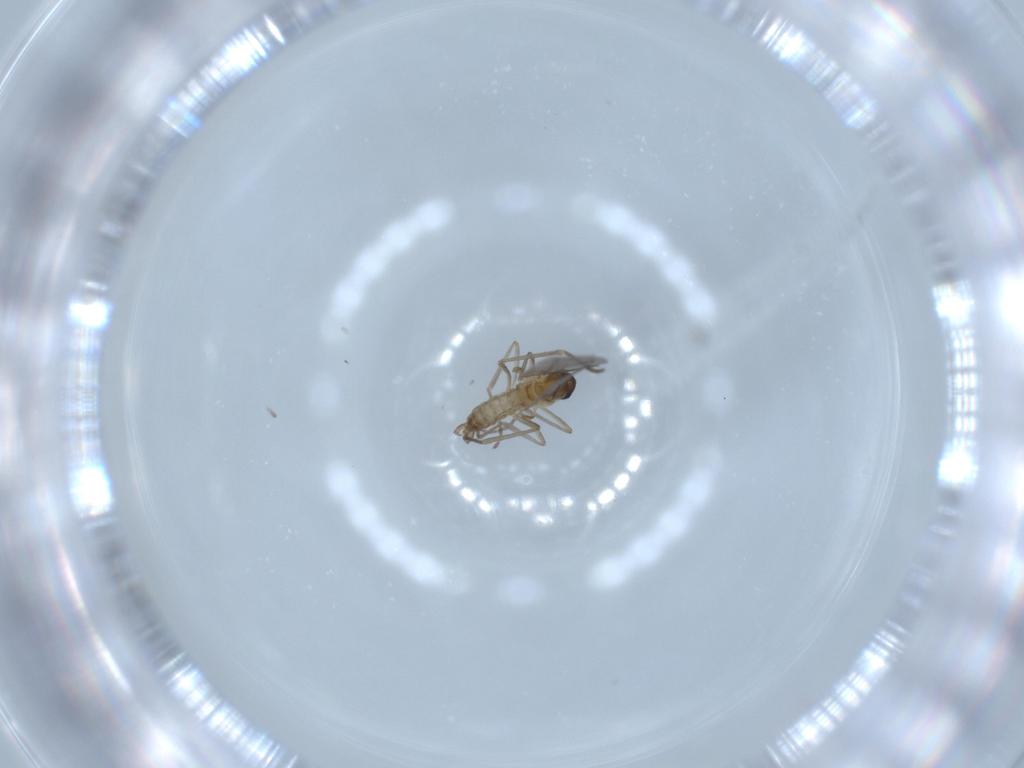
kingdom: Animalia
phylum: Arthropoda
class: Insecta
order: Diptera
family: Cecidomyiidae
